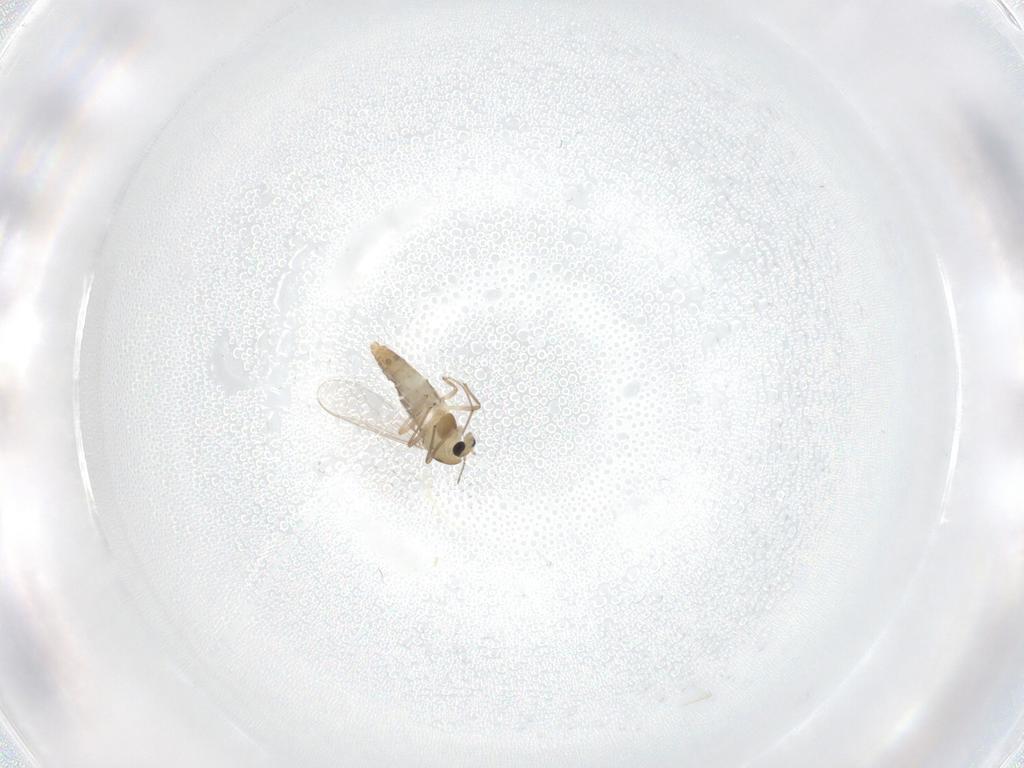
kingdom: Animalia
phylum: Arthropoda
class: Insecta
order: Diptera
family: Chironomidae
